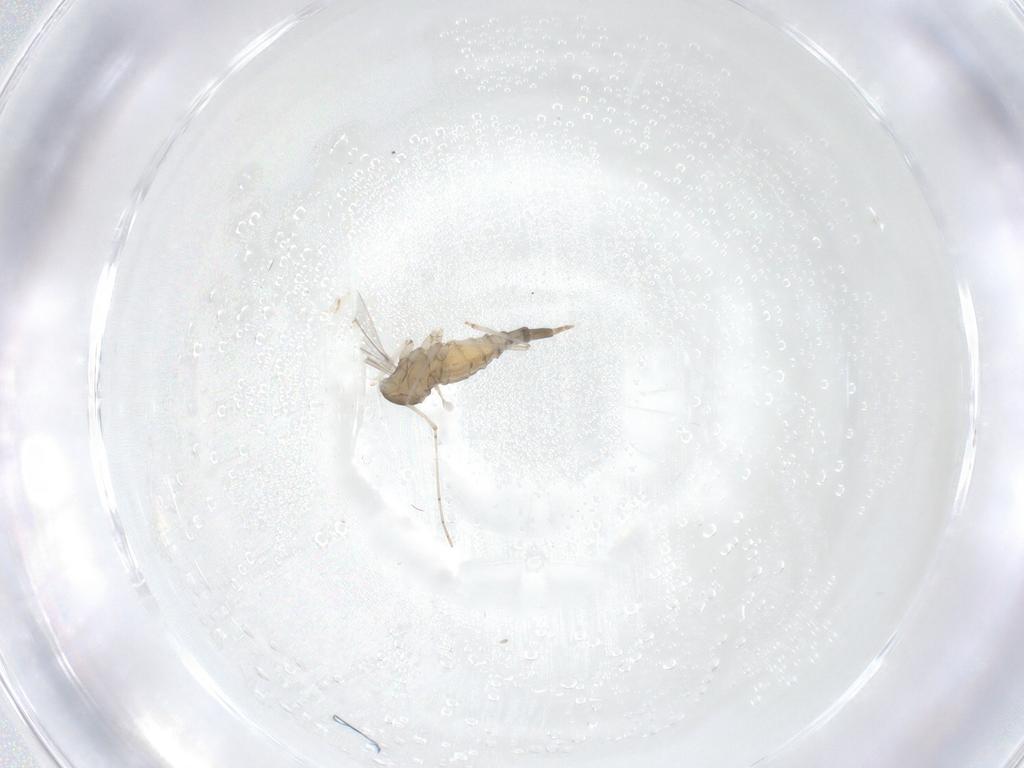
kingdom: Animalia
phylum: Arthropoda
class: Insecta
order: Diptera
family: Cecidomyiidae
